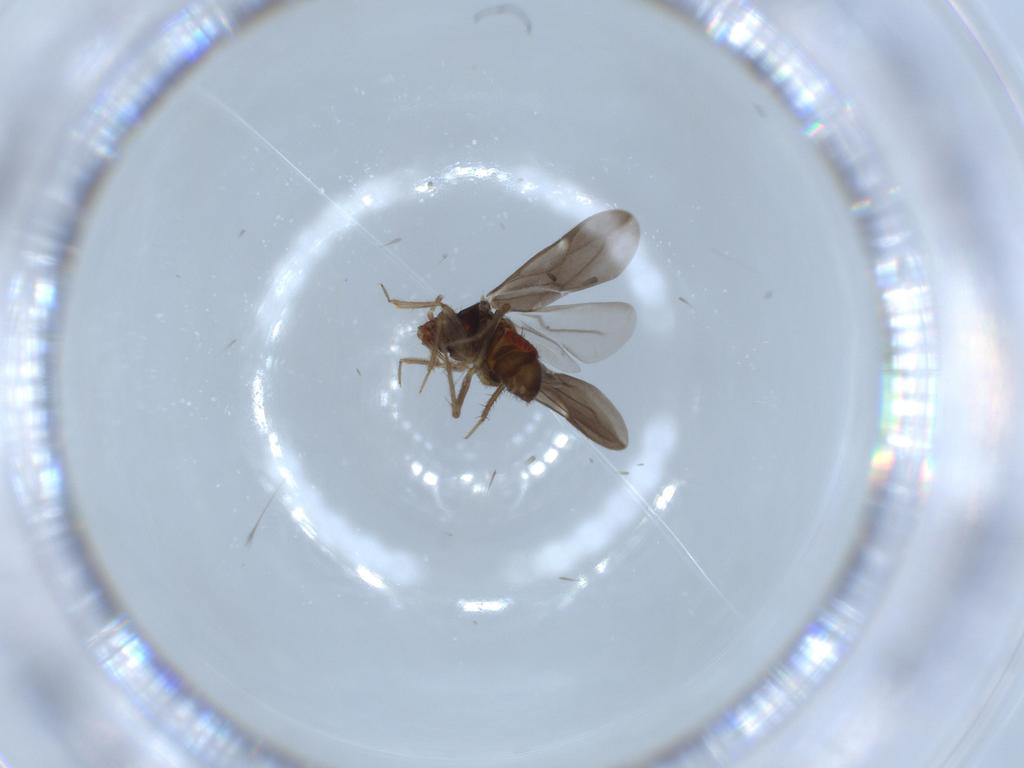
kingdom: Animalia
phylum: Arthropoda
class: Insecta
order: Hemiptera
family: Ceratocombidae
